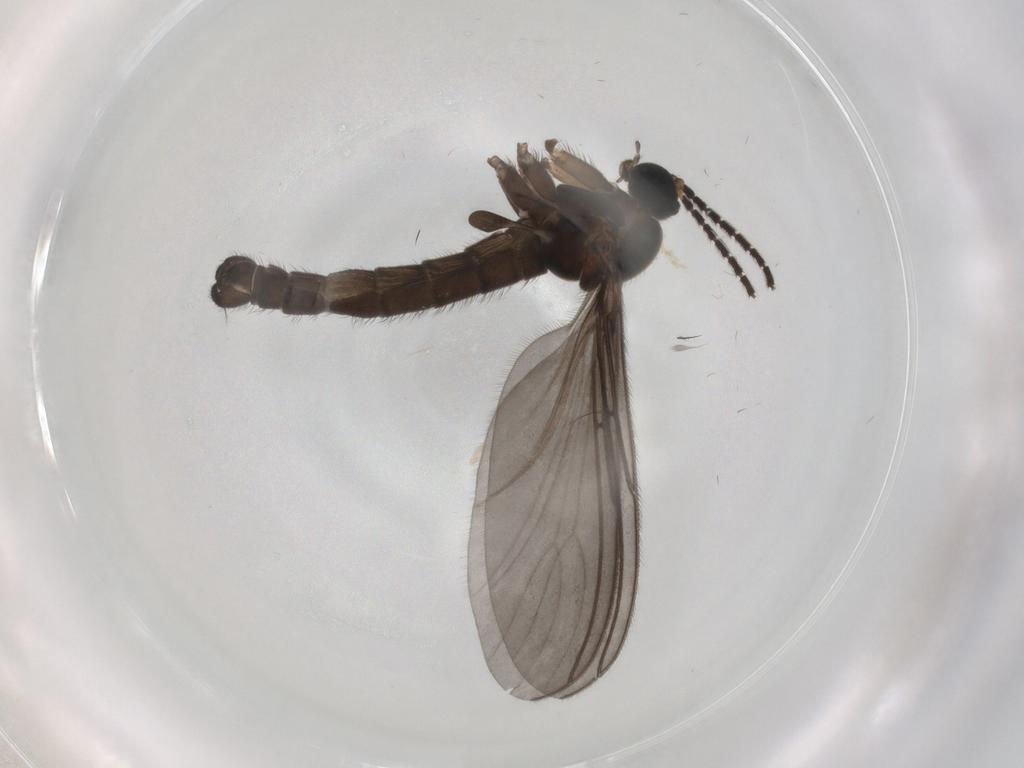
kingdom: Animalia
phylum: Arthropoda
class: Insecta
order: Diptera
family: Sciaridae
